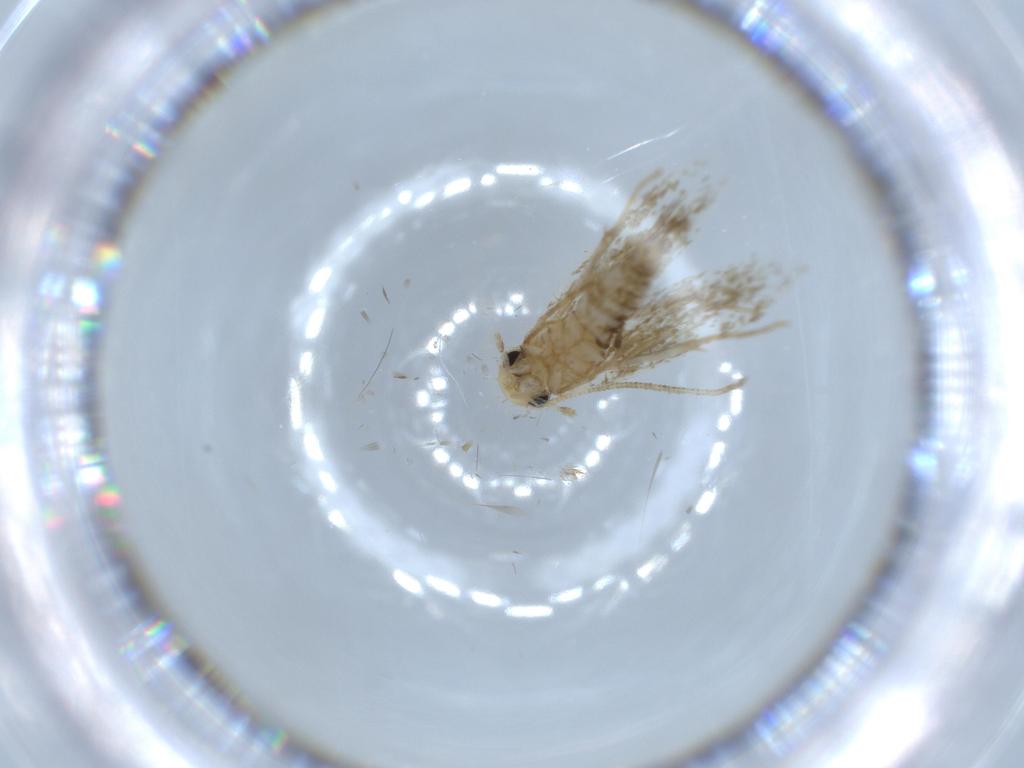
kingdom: Animalia
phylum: Arthropoda
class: Insecta
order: Lepidoptera
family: Tineidae
